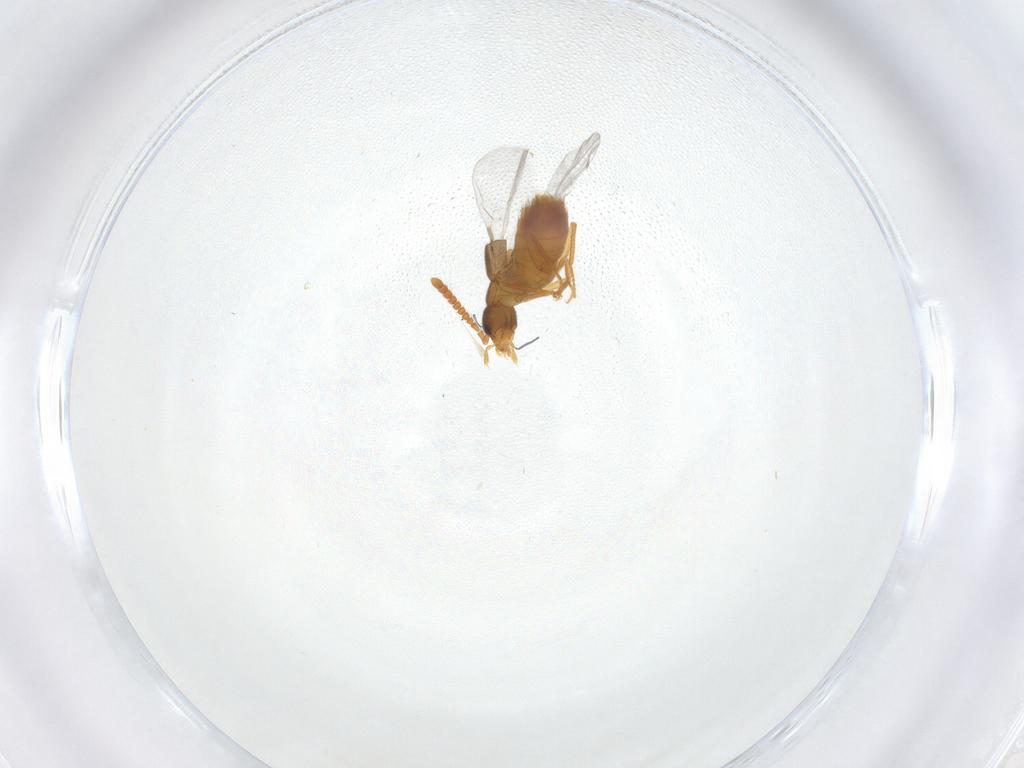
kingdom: Animalia
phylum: Arthropoda
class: Insecta
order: Coleoptera
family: Staphylinidae
